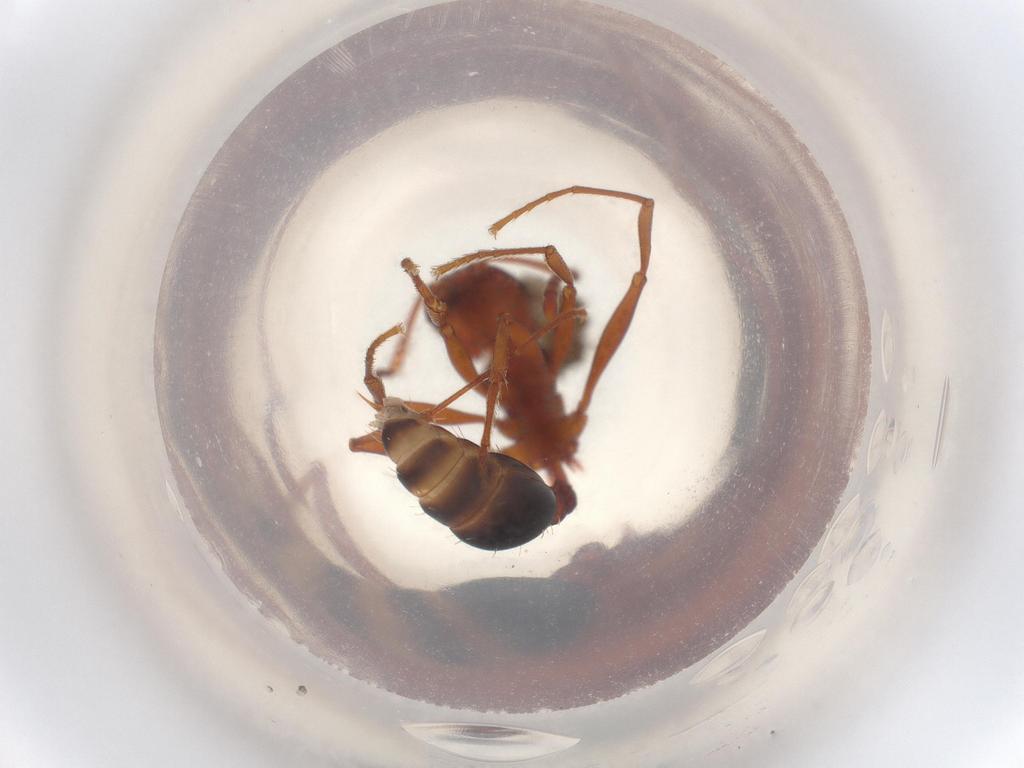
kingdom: Animalia
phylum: Arthropoda
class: Insecta
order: Hymenoptera
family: Formicidae
